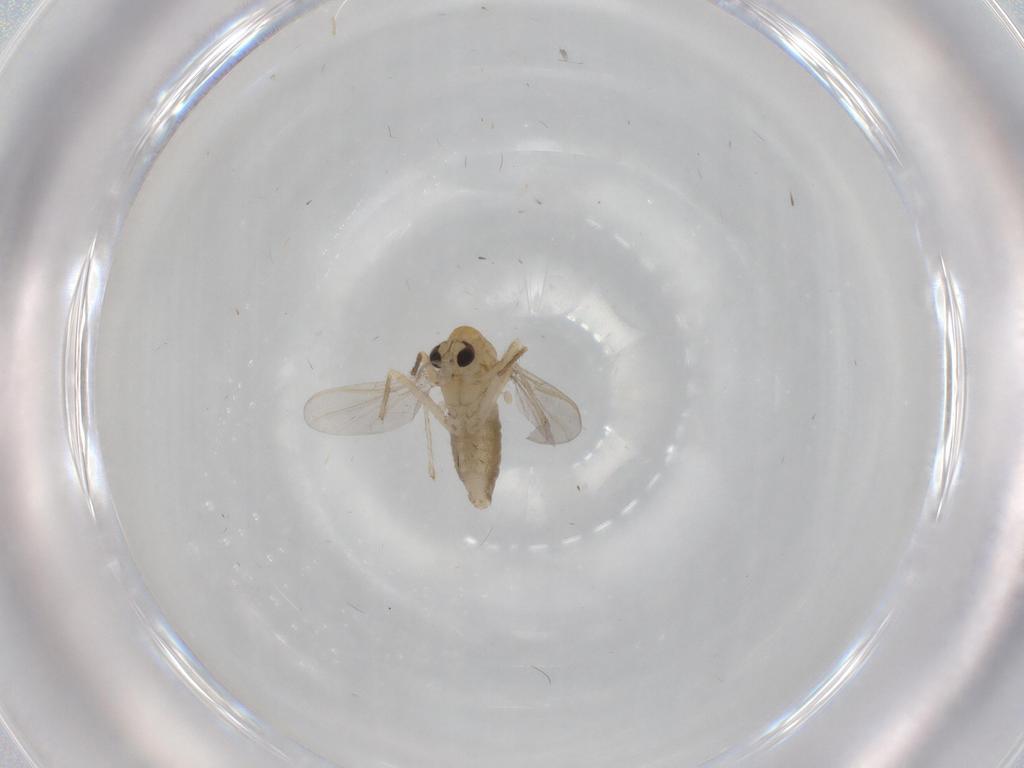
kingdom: Animalia
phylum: Arthropoda
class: Insecta
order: Diptera
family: Chironomidae
